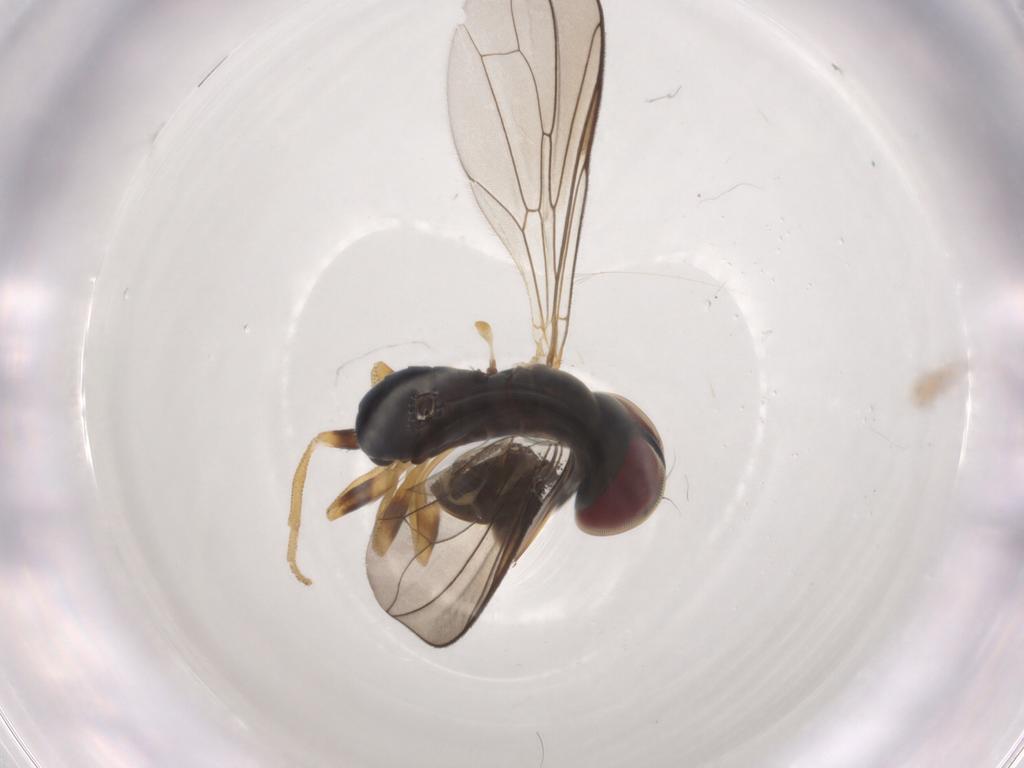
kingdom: Animalia
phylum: Arthropoda
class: Insecta
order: Diptera
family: Pipunculidae
